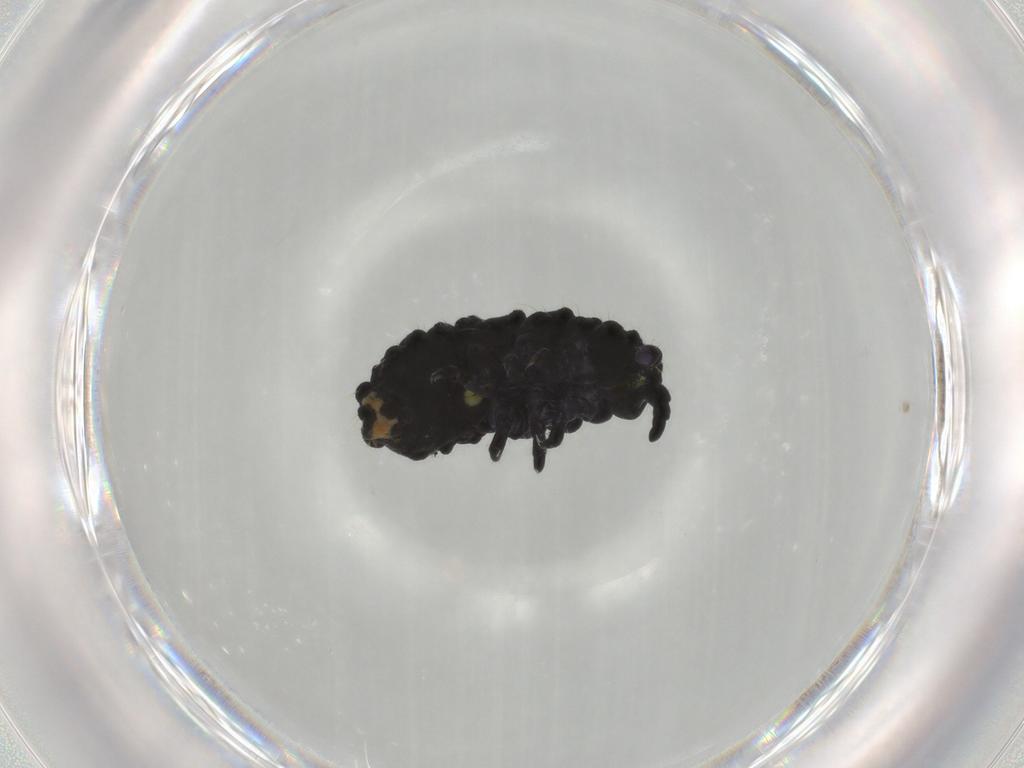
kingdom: Animalia
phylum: Arthropoda
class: Collembola
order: Poduromorpha
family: Neanuridae
